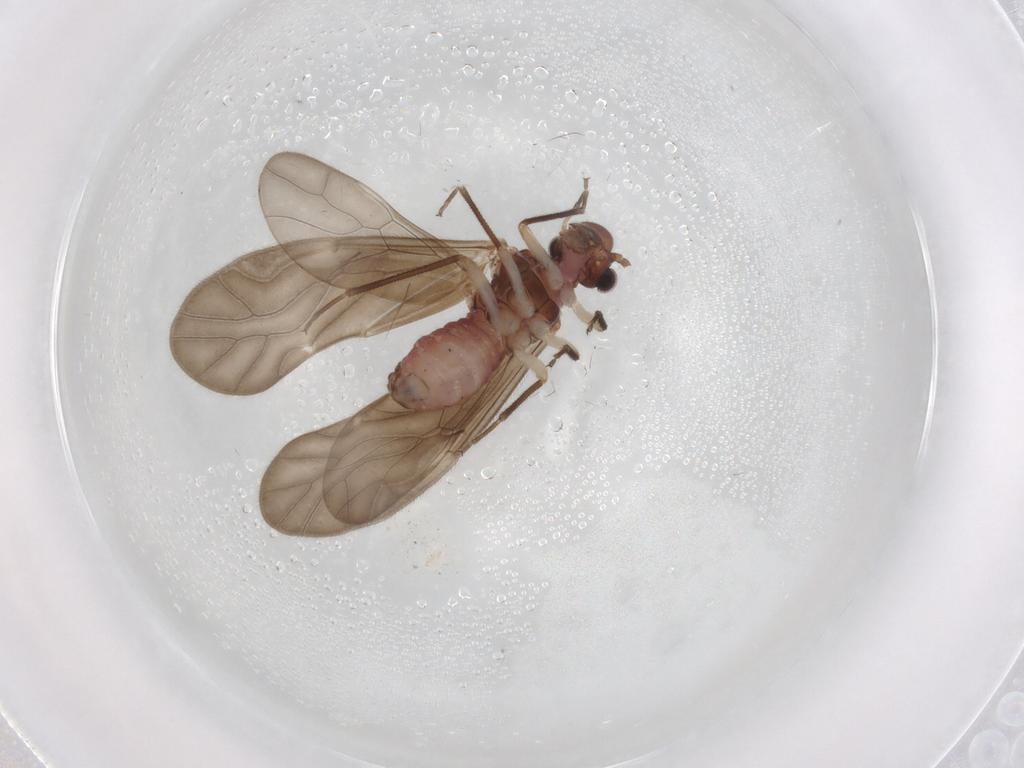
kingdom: Animalia
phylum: Arthropoda
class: Insecta
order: Psocodea
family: Caeciliusidae
